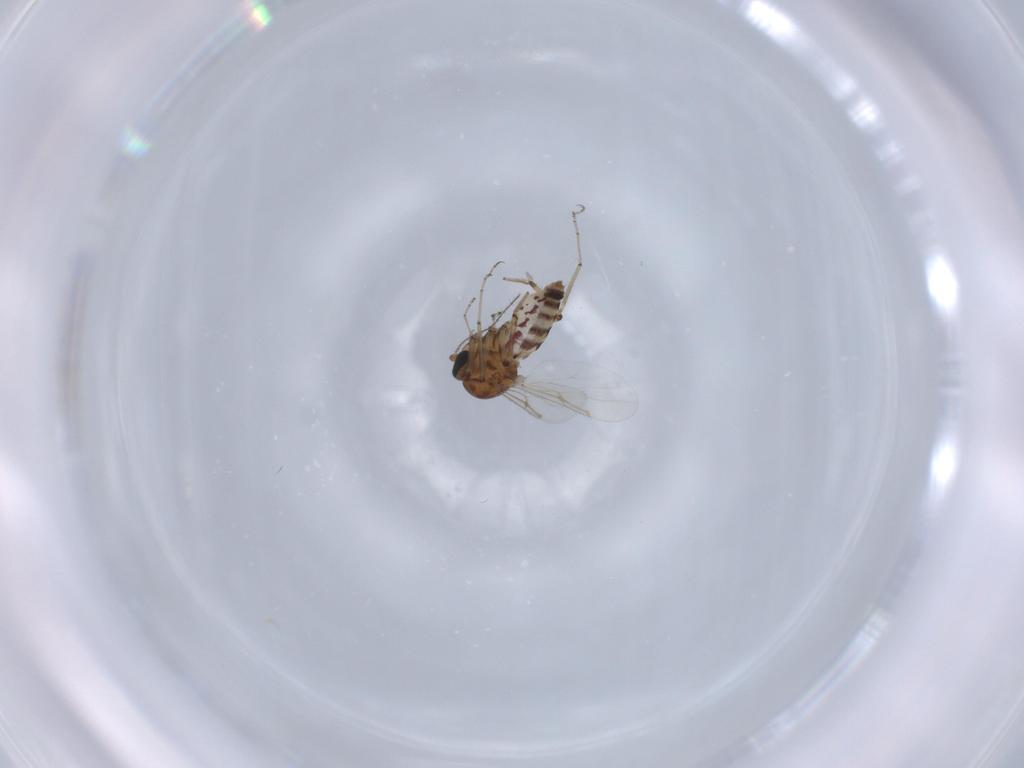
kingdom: Animalia
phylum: Arthropoda
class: Insecta
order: Diptera
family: Ceratopogonidae
